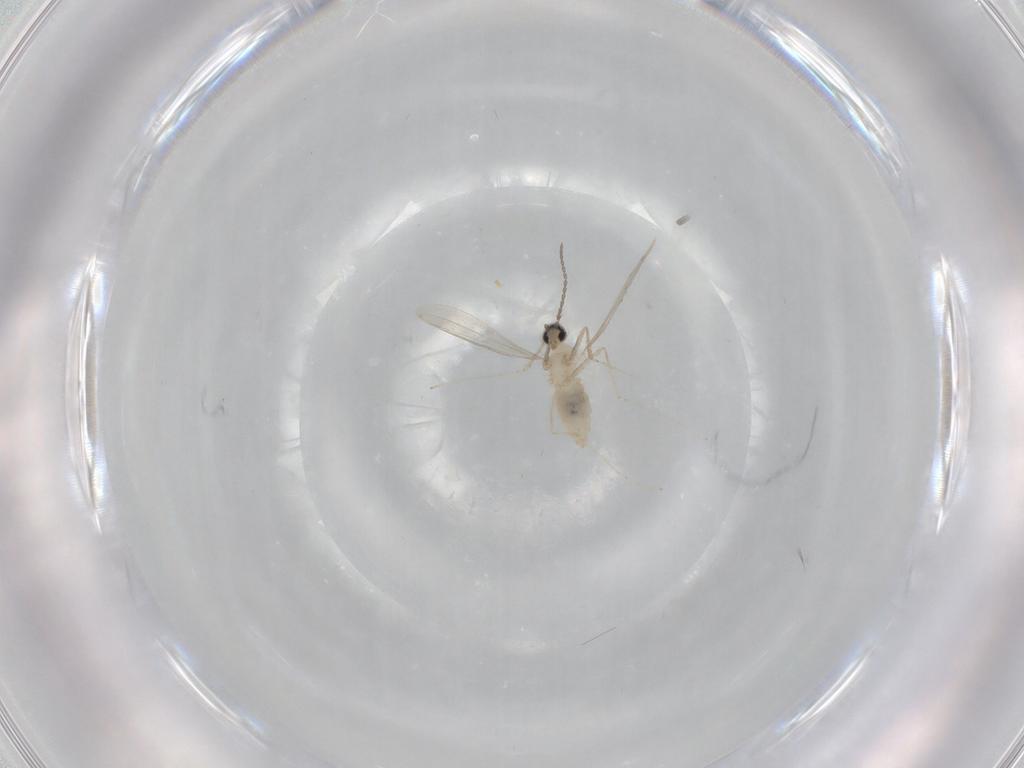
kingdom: Animalia
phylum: Arthropoda
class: Insecta
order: Diptera
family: Cecidomyiidae
